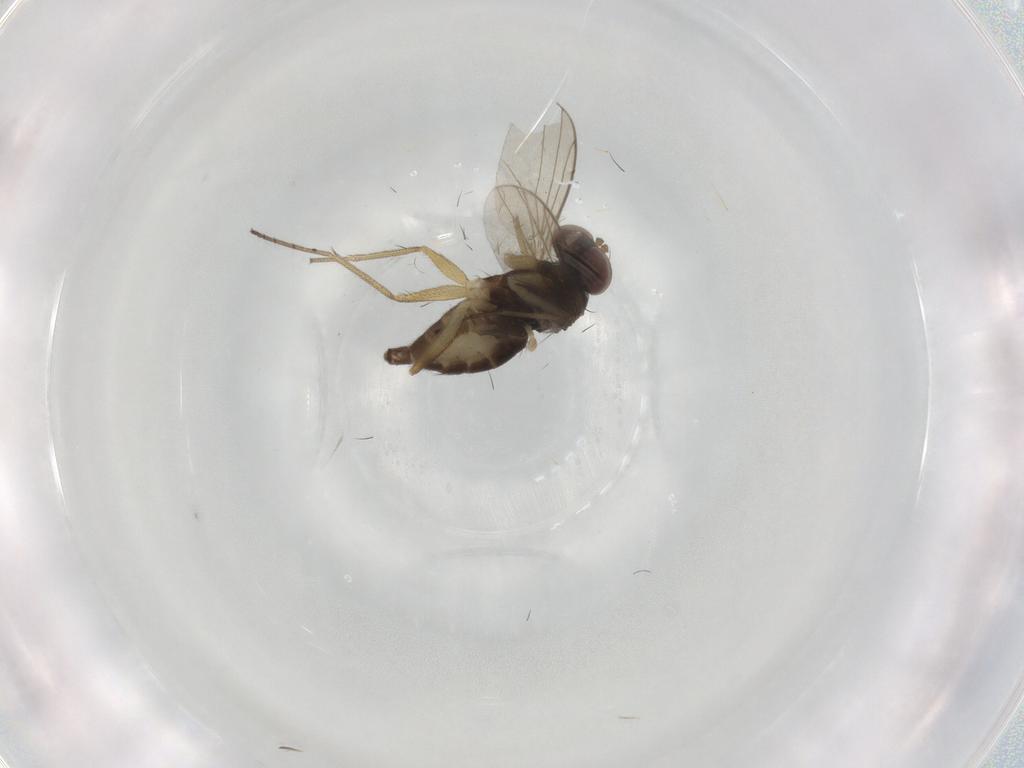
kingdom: Animalia
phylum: Arthropoda
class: Insecta
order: Diptera
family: Dolichopodidae
